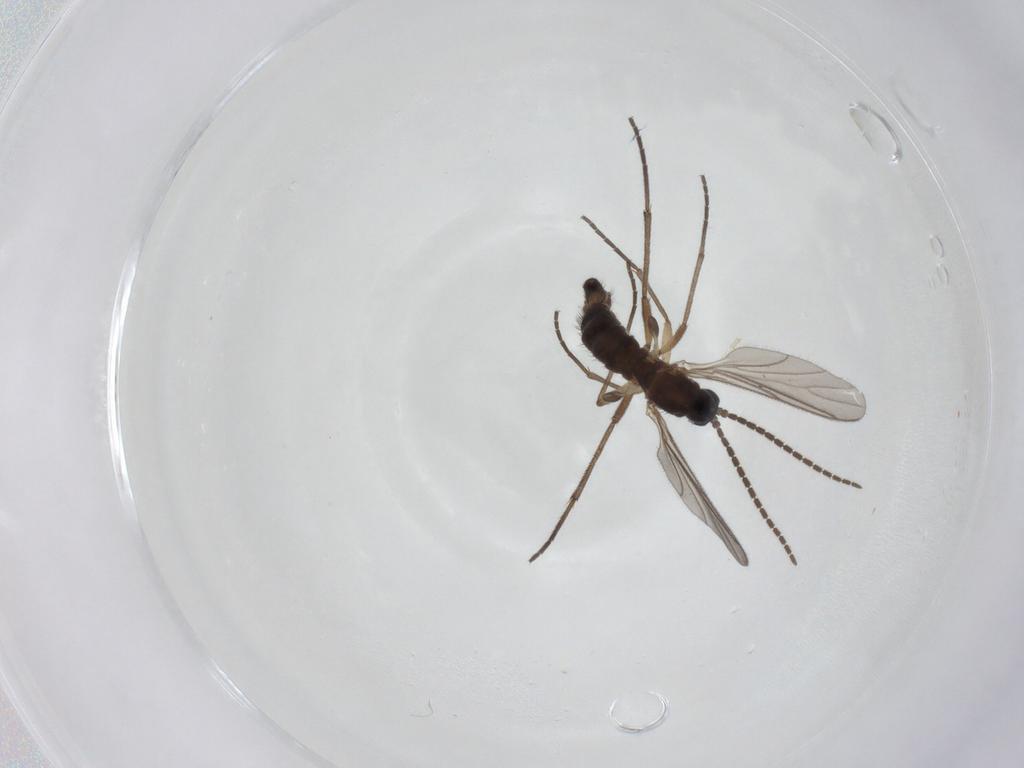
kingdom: Animalia
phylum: Arthropoda
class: Insecta
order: Diptera
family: Sciaridae
